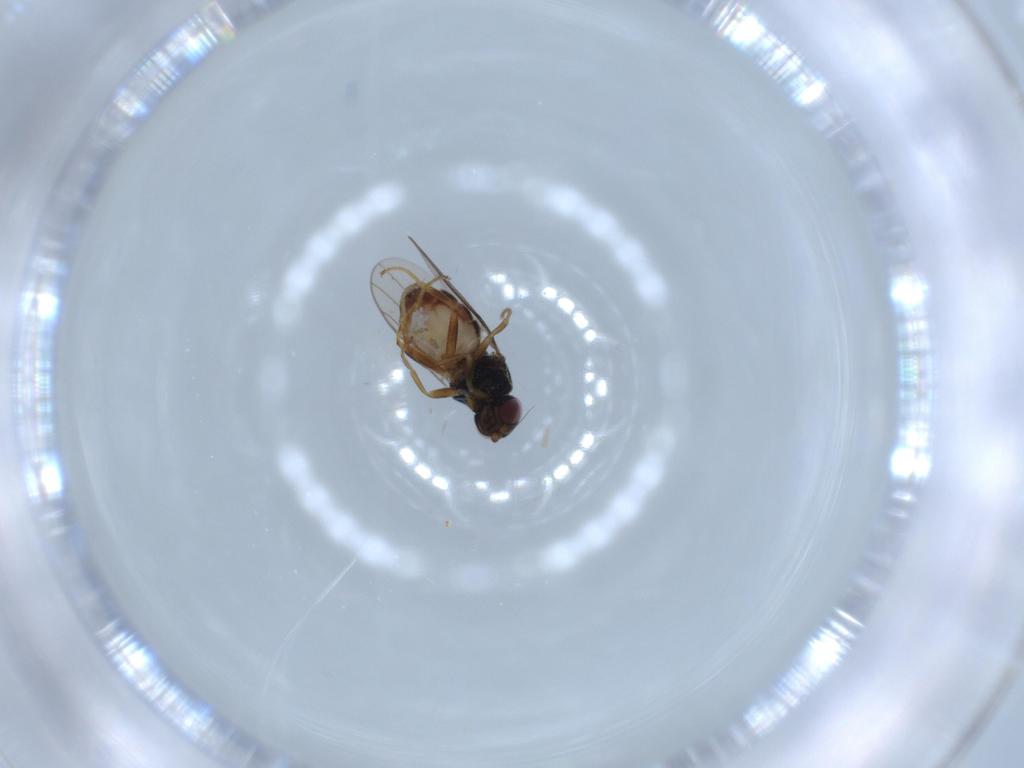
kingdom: Animalia
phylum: Arthropoda
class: Insecta
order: Diptera
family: Chloropidae
